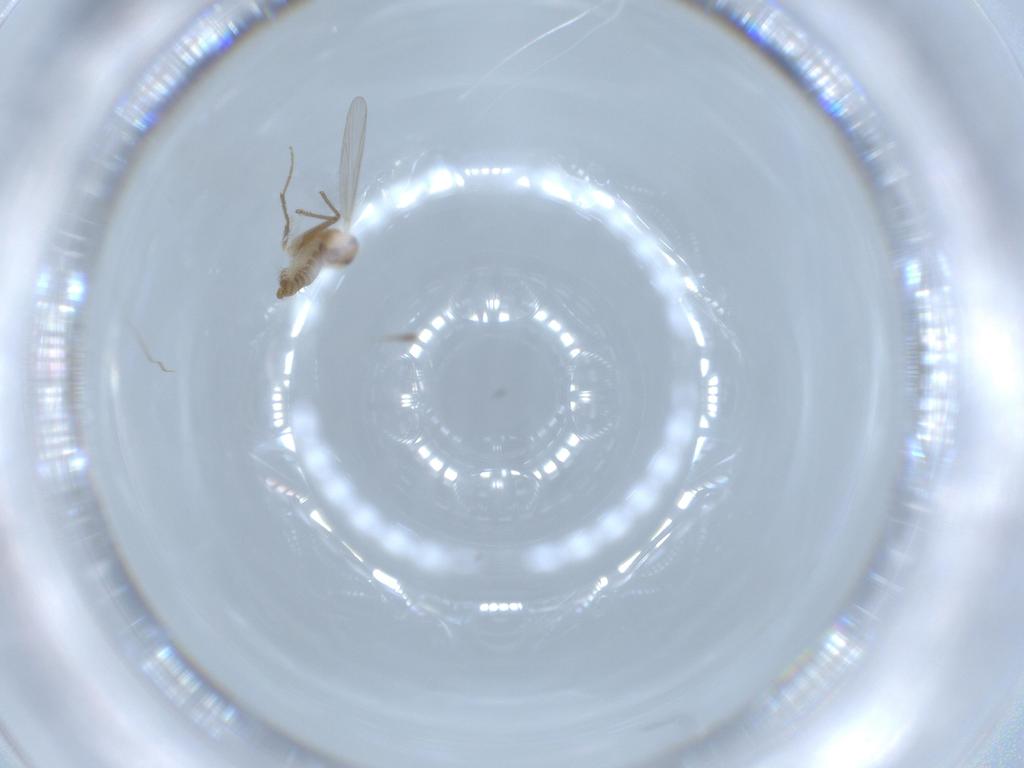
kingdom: Animalia
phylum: Arthropoda
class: Insecta
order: Diptera
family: Chironomidae
